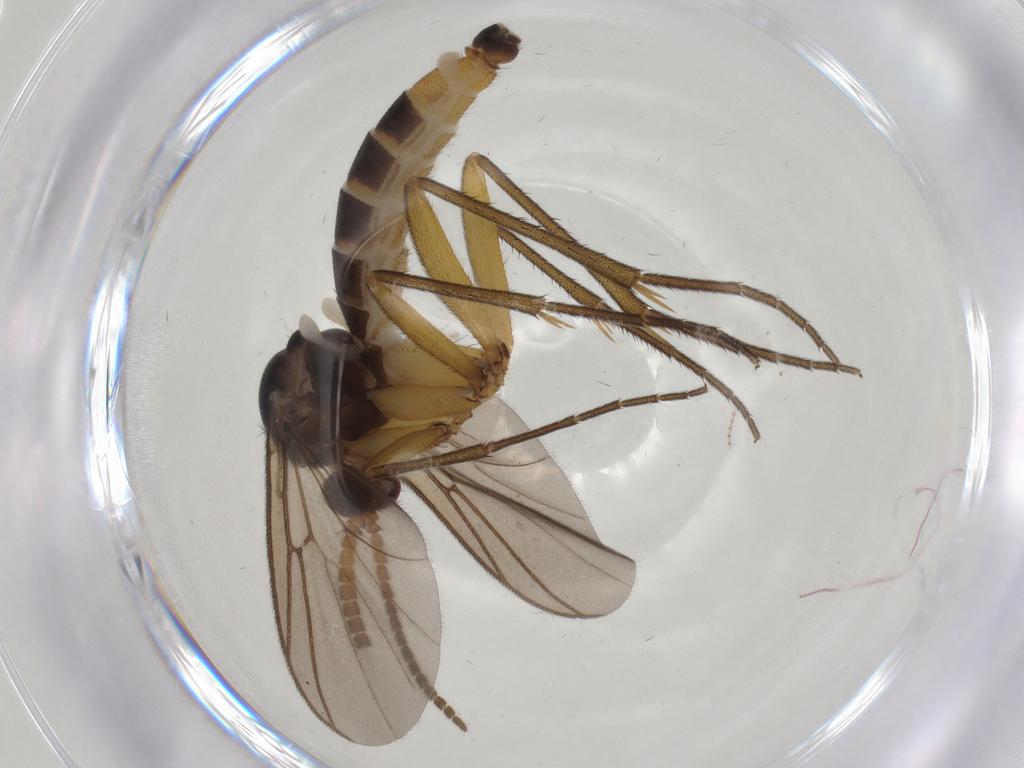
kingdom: Animalia
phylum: Arthropoda
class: Insecta
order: Diptera
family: Mycetophilidae
